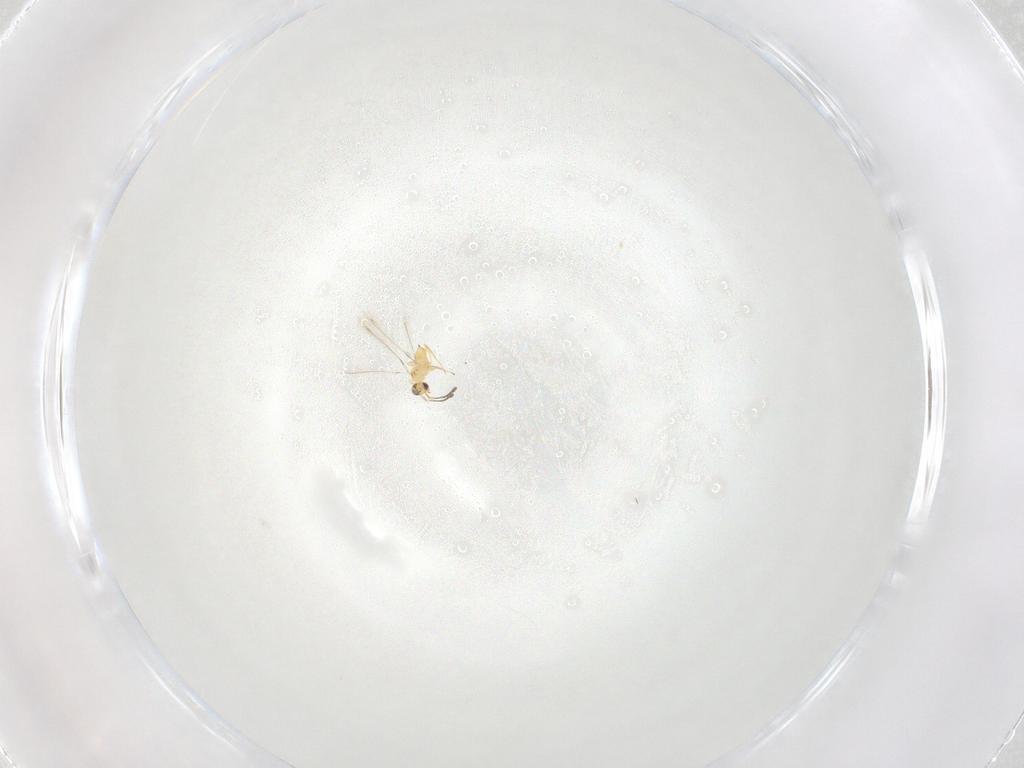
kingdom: Animalia
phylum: Arthropoda
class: Insecta
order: Hymenoptera
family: Mymaridae
